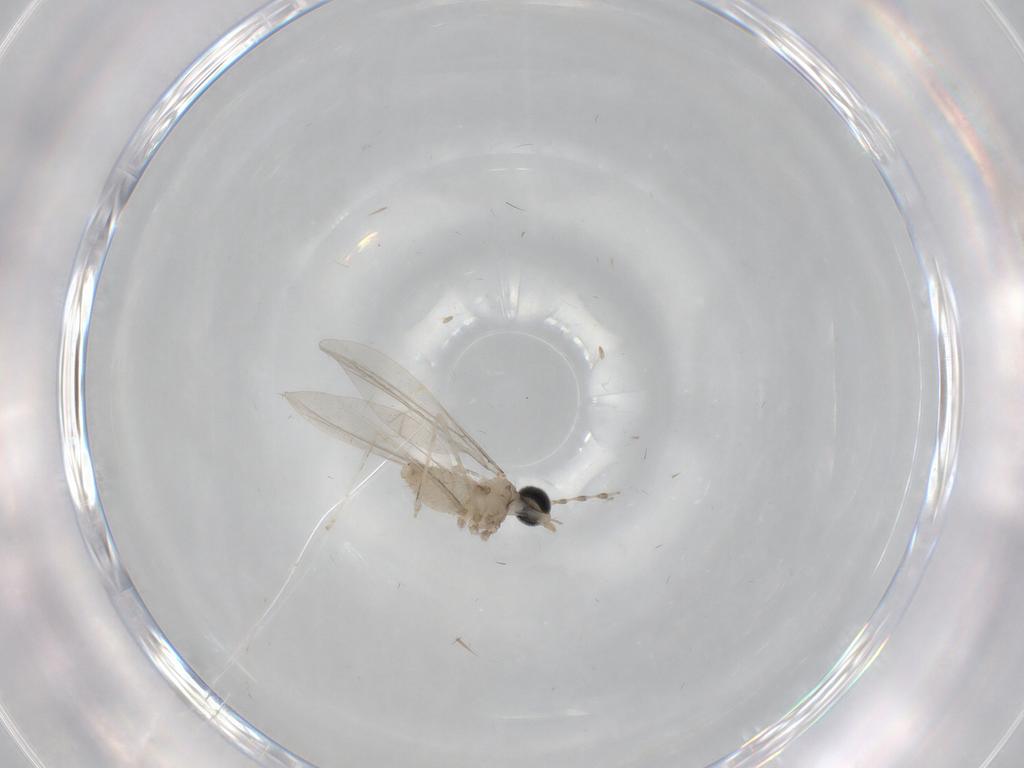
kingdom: Animalia
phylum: Arthropoda
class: Insecta
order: Diptera
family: Cecidomyiidae
